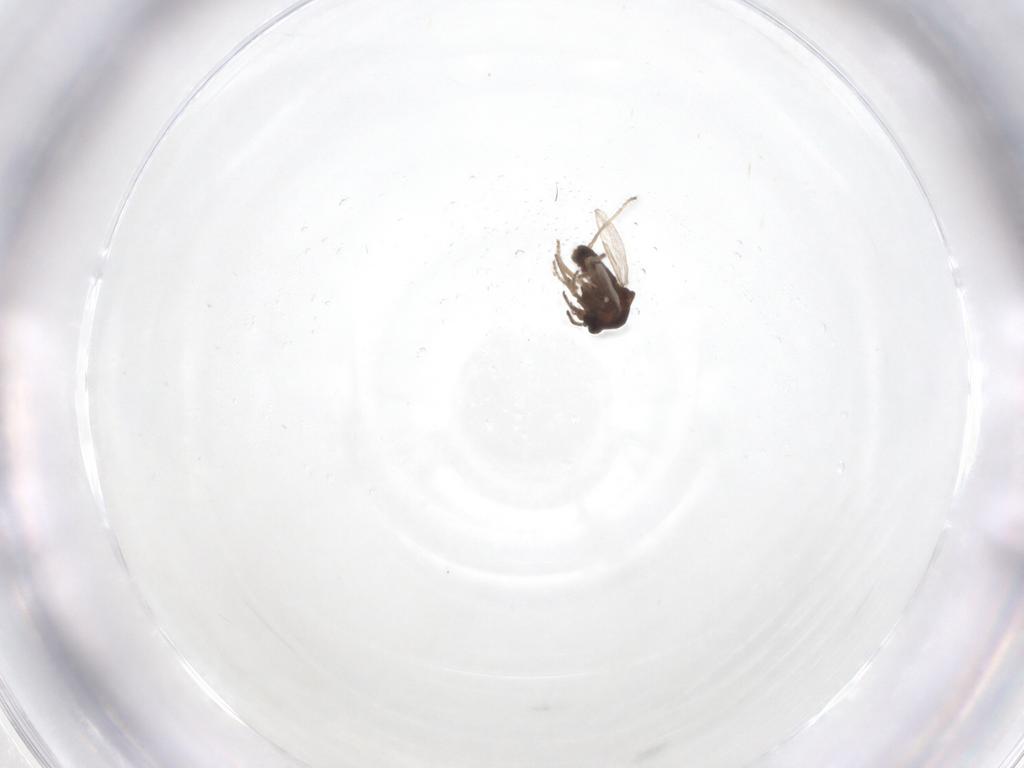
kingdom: Animalia
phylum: Arthropoda
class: Insecta
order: Diptera
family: Ceratopogonidae
